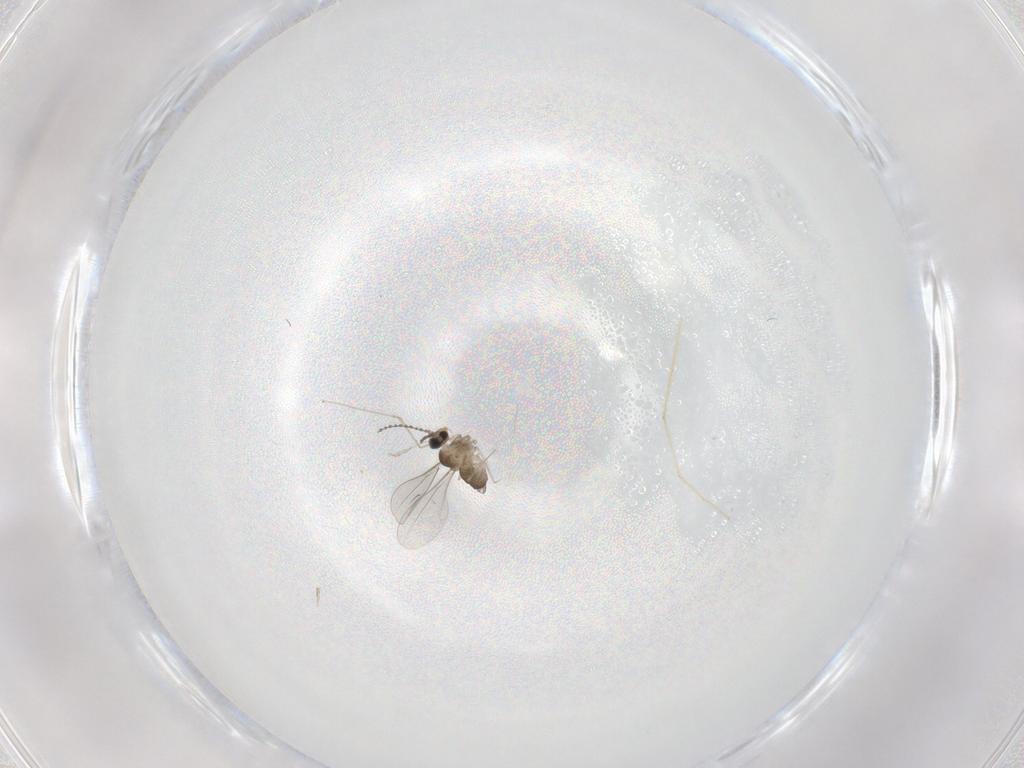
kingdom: Animalia
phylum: Arthropoda
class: Insecta
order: Diptera
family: Cecidomyiidae
